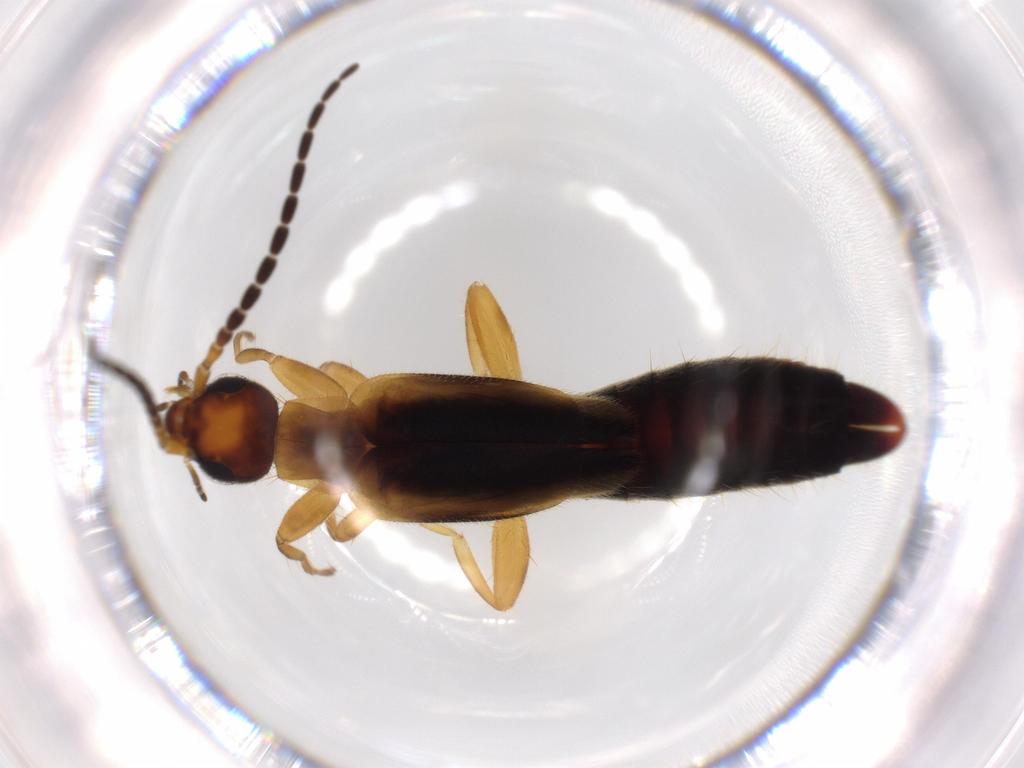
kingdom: Animalia
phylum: Arthropoda
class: Insecta
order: Dermaptera
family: Forficulidae
